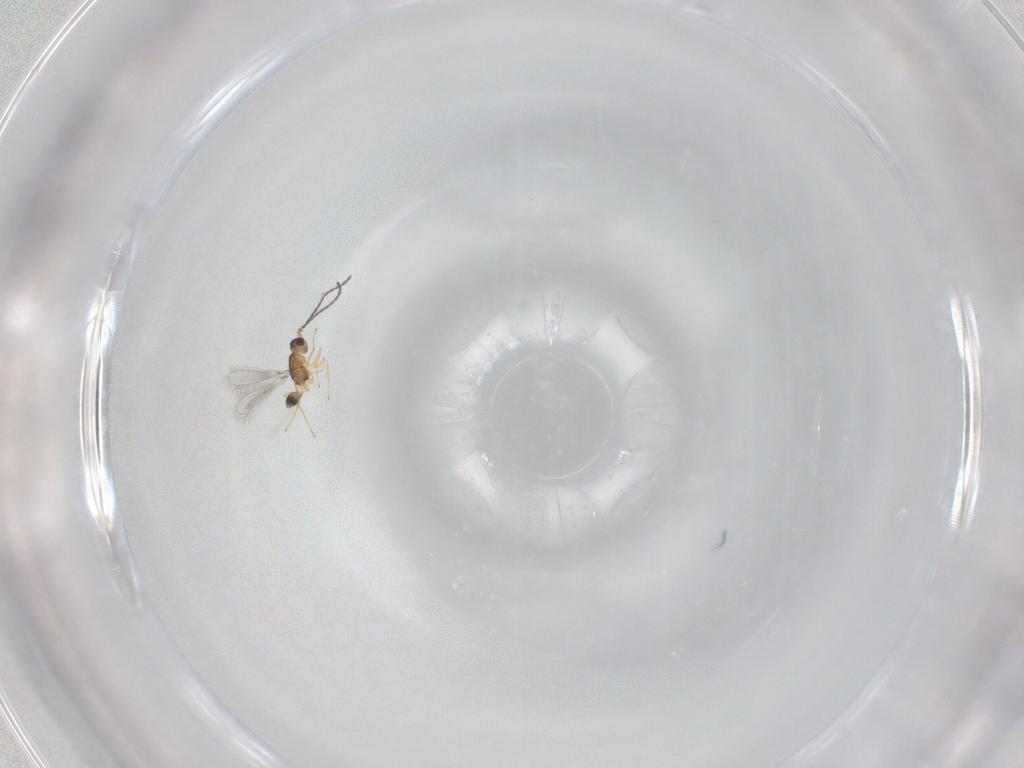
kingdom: Animalia
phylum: Arthropoda
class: Insecta
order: Hymenoptera
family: Mymaridae
